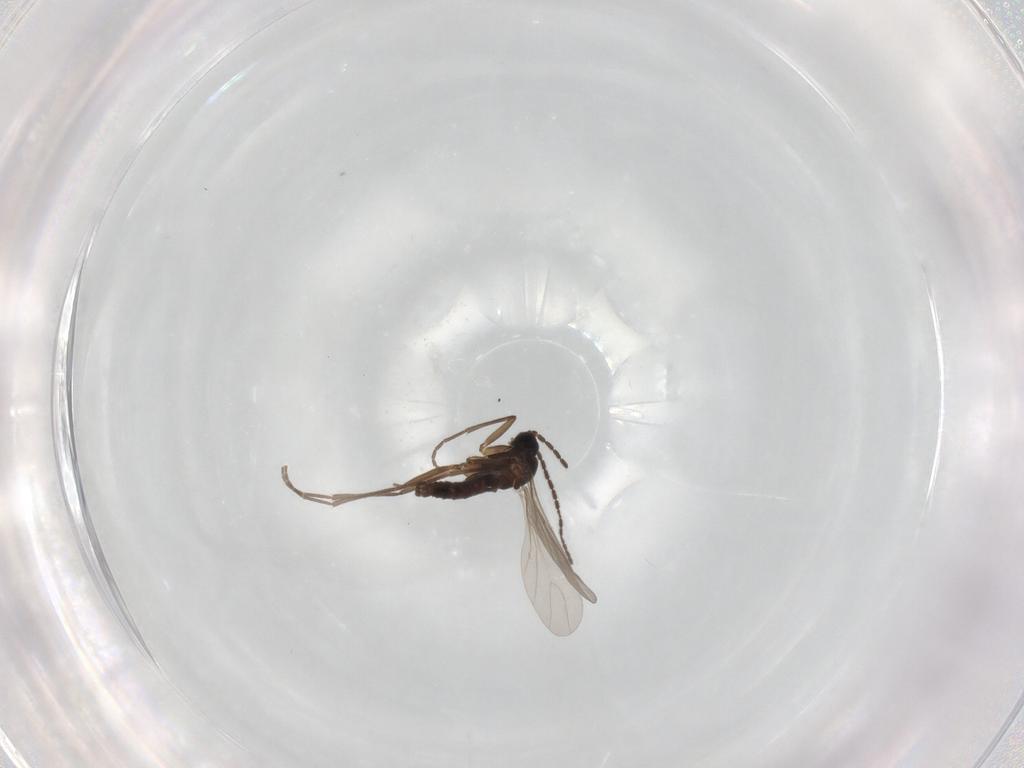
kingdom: Animalia
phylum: Arthropoda
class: Insecta
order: Diptera
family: Sciaridae
